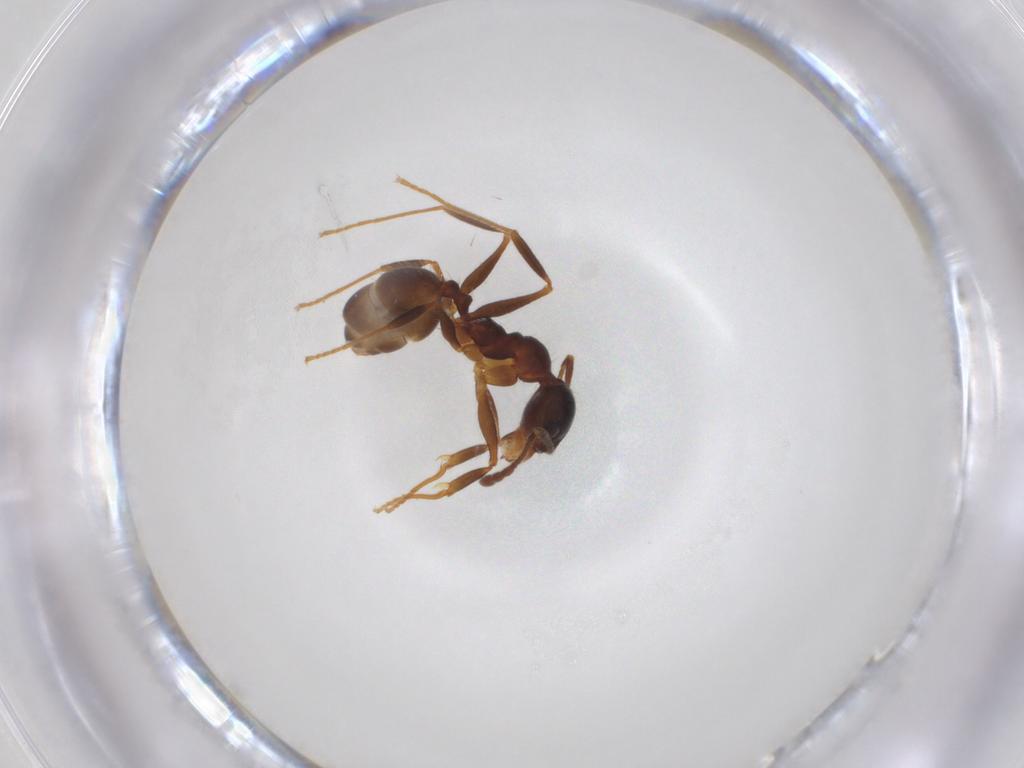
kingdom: Animalia
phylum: Arthropoda
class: Insecta
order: Hymenoptera
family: Formicidae
